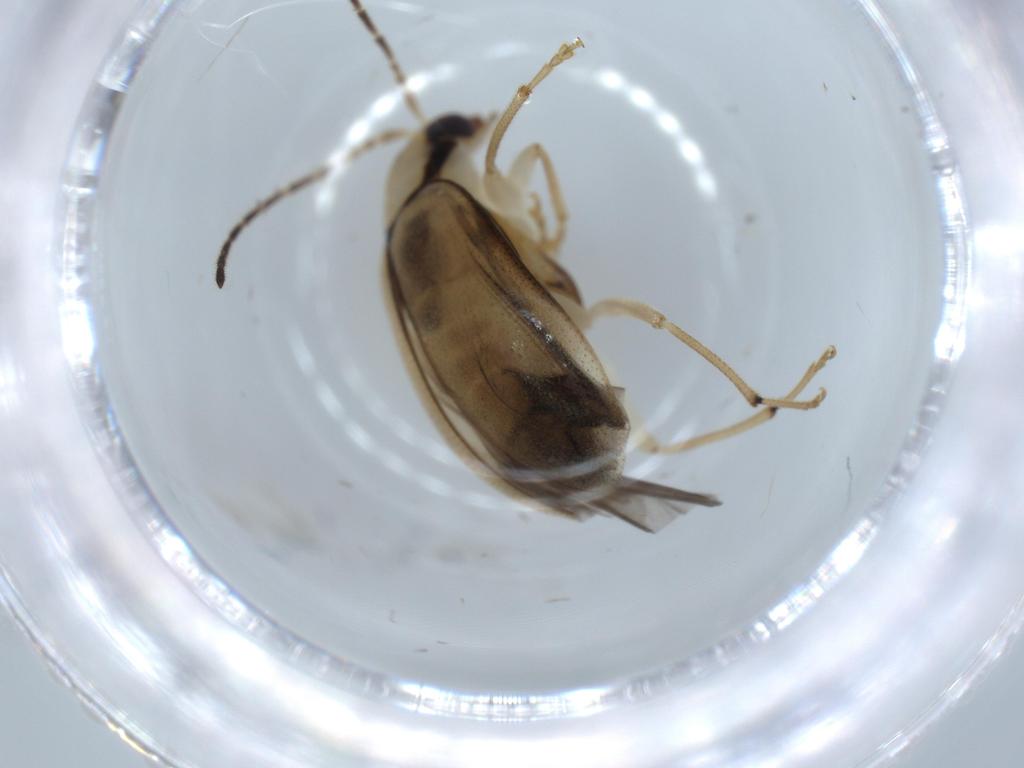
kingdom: Animalia
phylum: Arthropoda
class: Insecta
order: Coleoptera
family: Chrysomelidae
